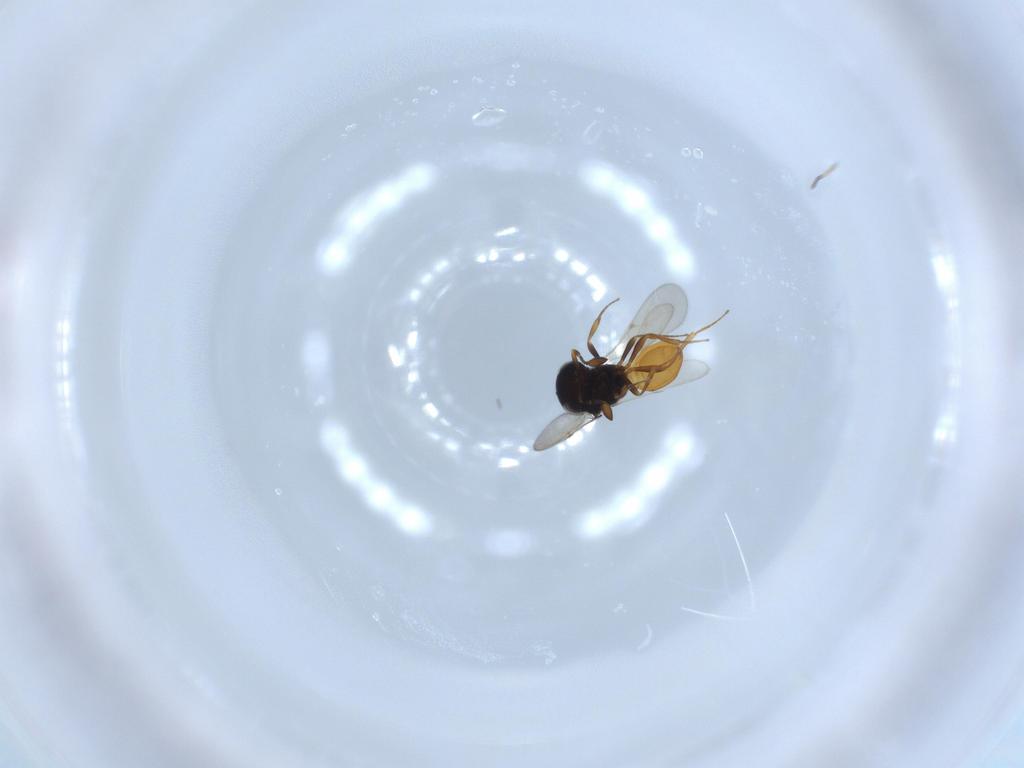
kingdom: Animalia
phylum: Arthropoda
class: Insecta
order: Hymenoptera
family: Scelionidae
